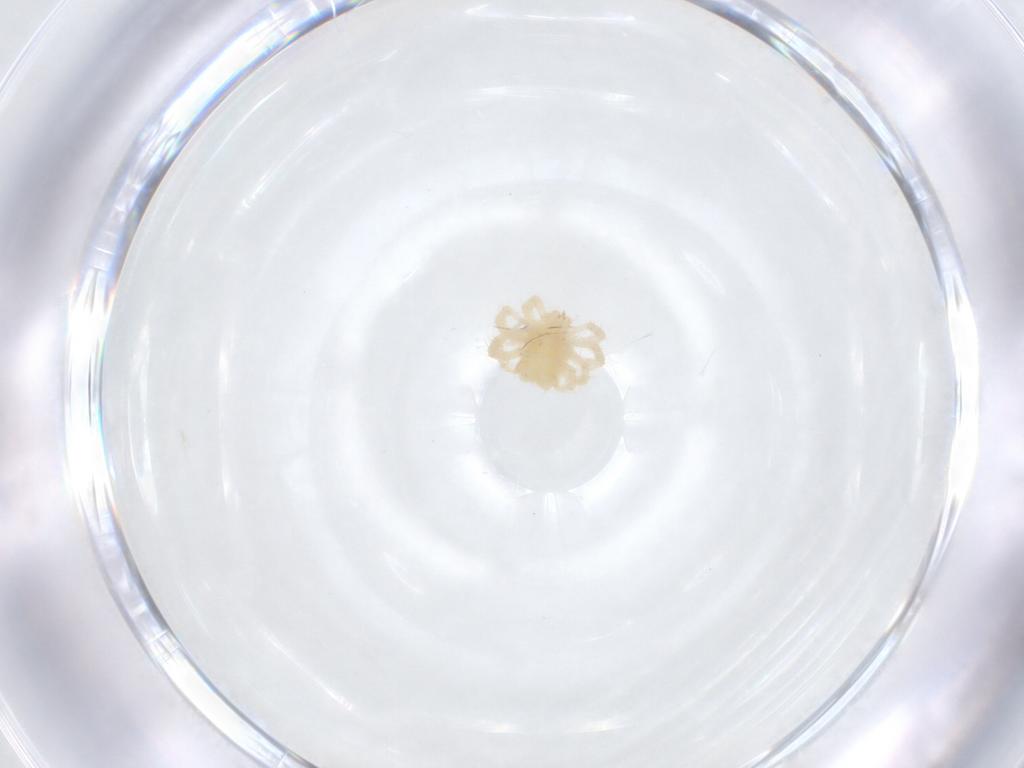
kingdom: Animalia
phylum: Arthropoda
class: Arachnida
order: Trombidiformes
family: Anystidae
